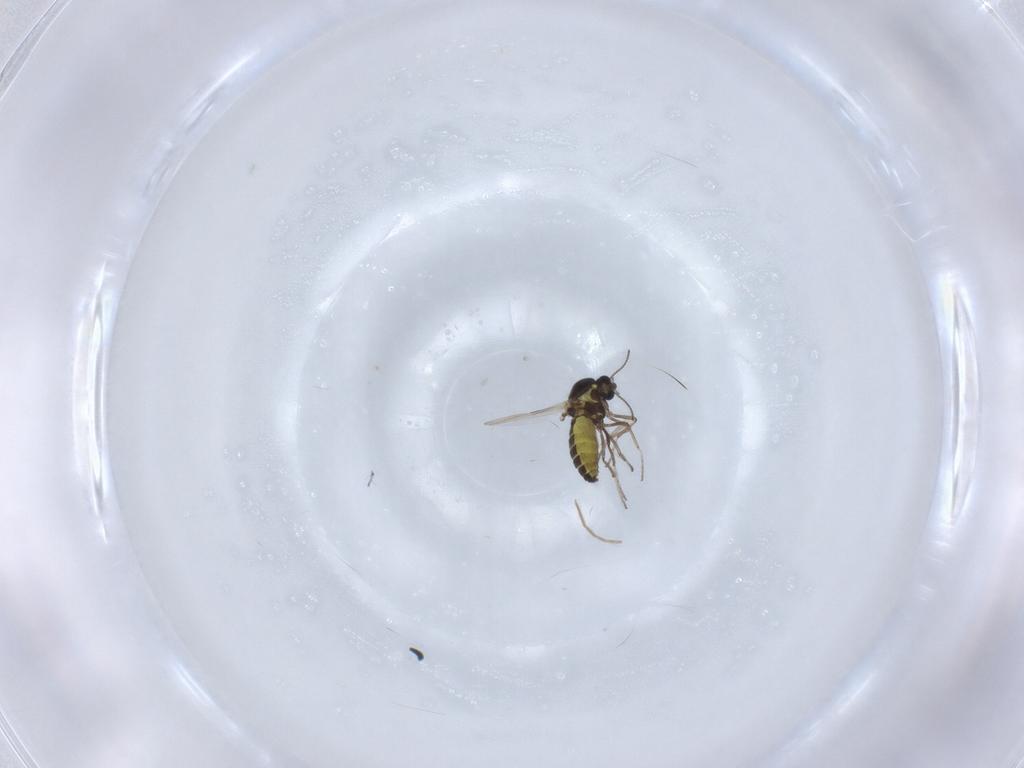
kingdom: Animalia
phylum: Arthropoda
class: Insecta
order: Diptera
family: Ceratopogonidae
